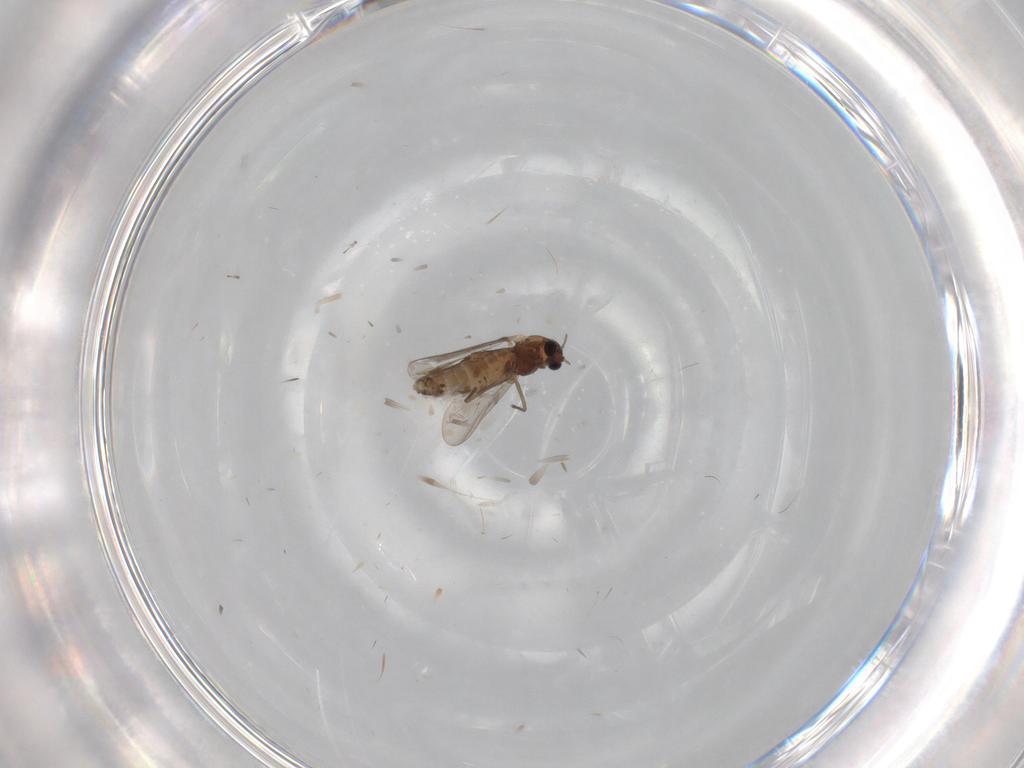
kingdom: Animalia
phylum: Arthropoda
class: Insecta
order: Diptera
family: Chironomidae
